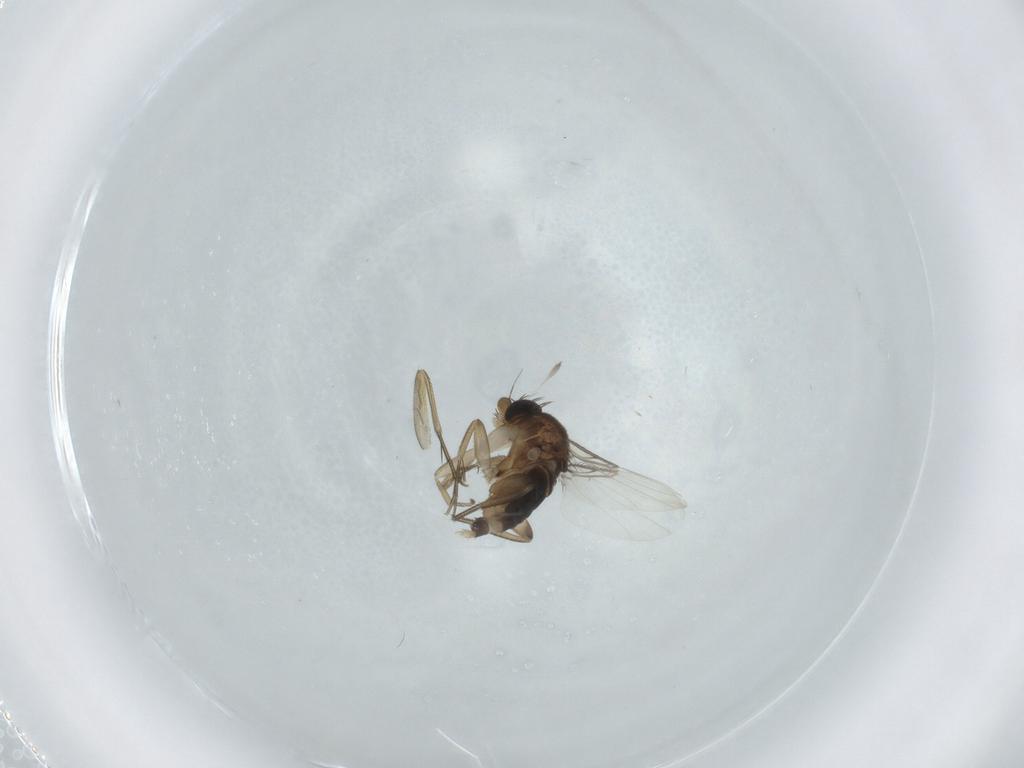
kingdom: Animalia
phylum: Arthropoda
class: Insecta
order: Diptera
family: Phoridae
